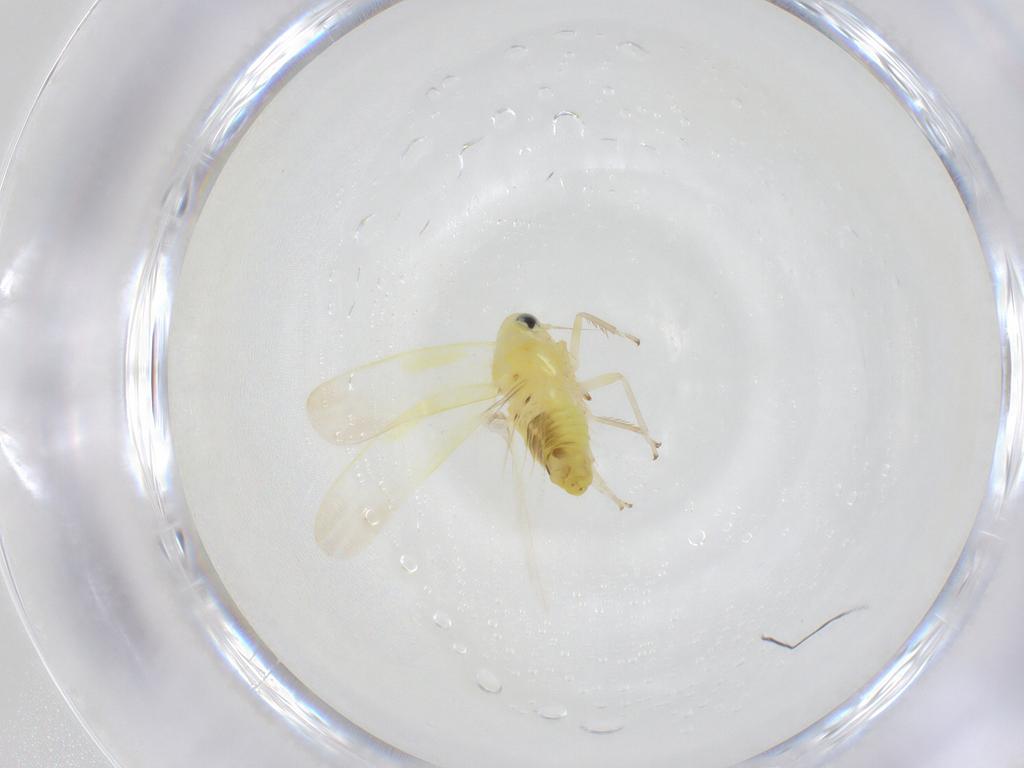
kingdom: Animalia
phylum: Arthropoda
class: Insecta
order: Hemiptera
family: Cicadellidae
